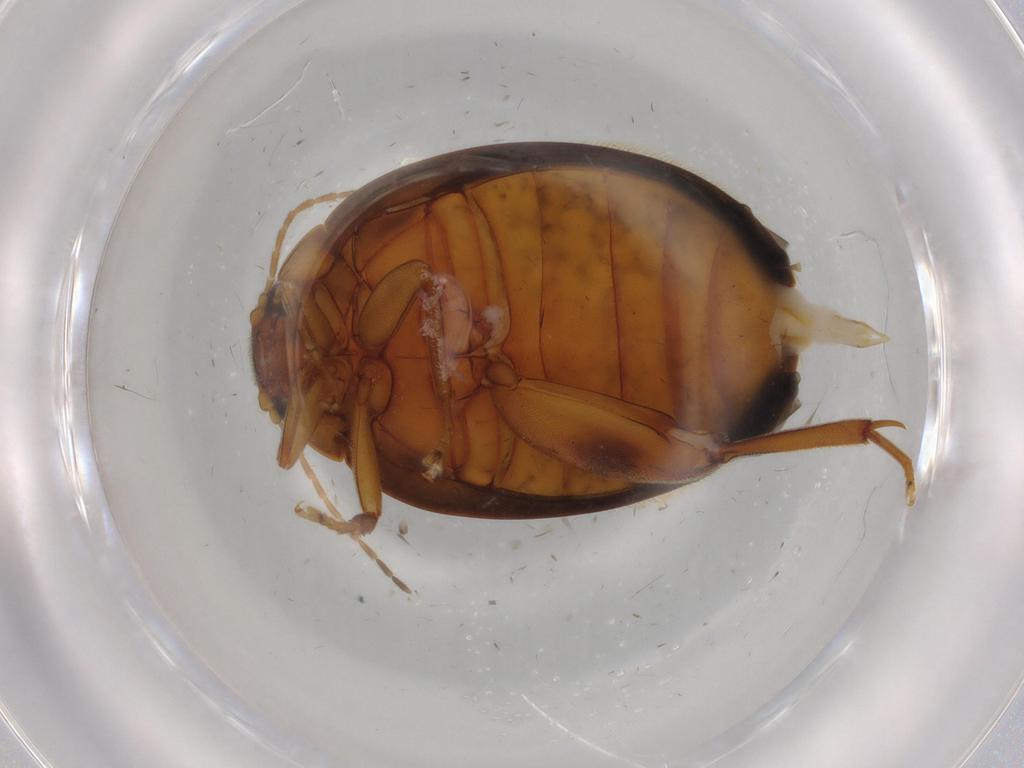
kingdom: Animalia
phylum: Arthropoda
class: Insecta
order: Coleoptera
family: Scirtidae
